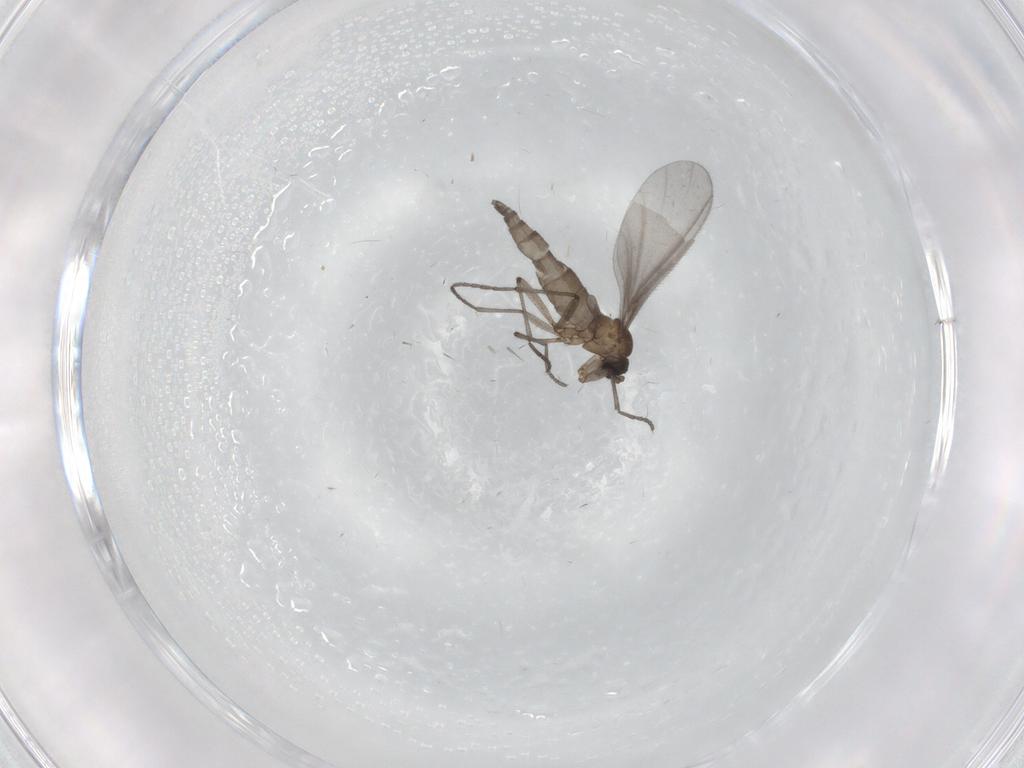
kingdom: Animalia
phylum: Arthropoda
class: Insecta
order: Diptera
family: Sciaridae
